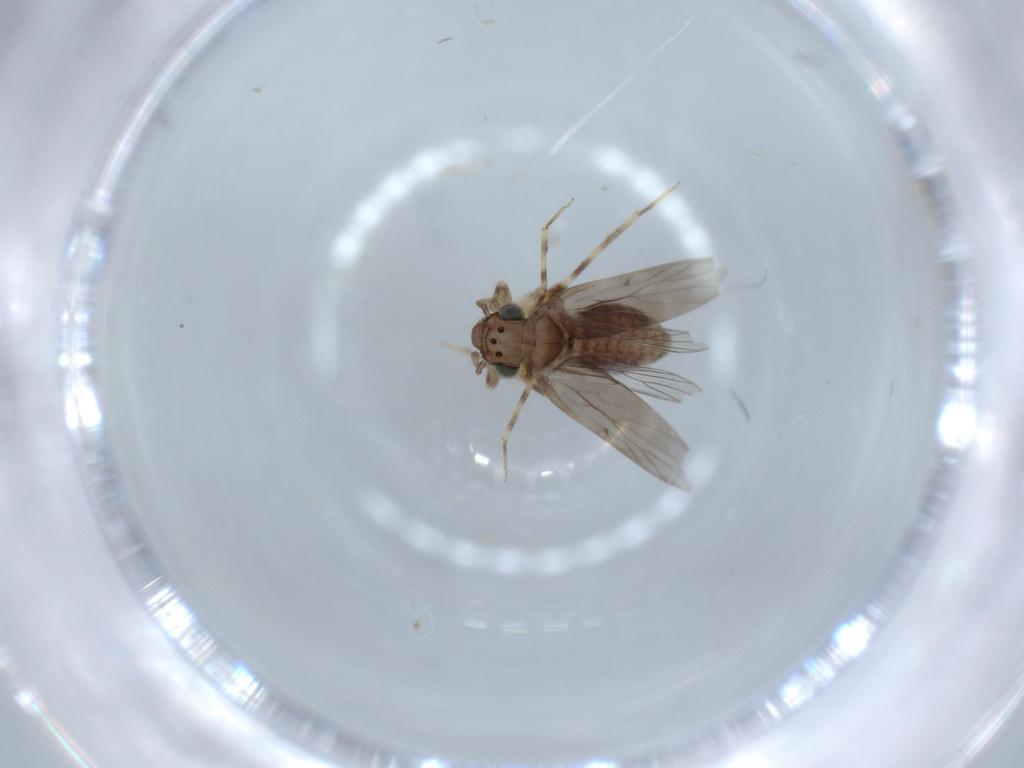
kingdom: Animalia
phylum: Arthropoda
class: Insecta
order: Psocodea
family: Lepidopsocidae
